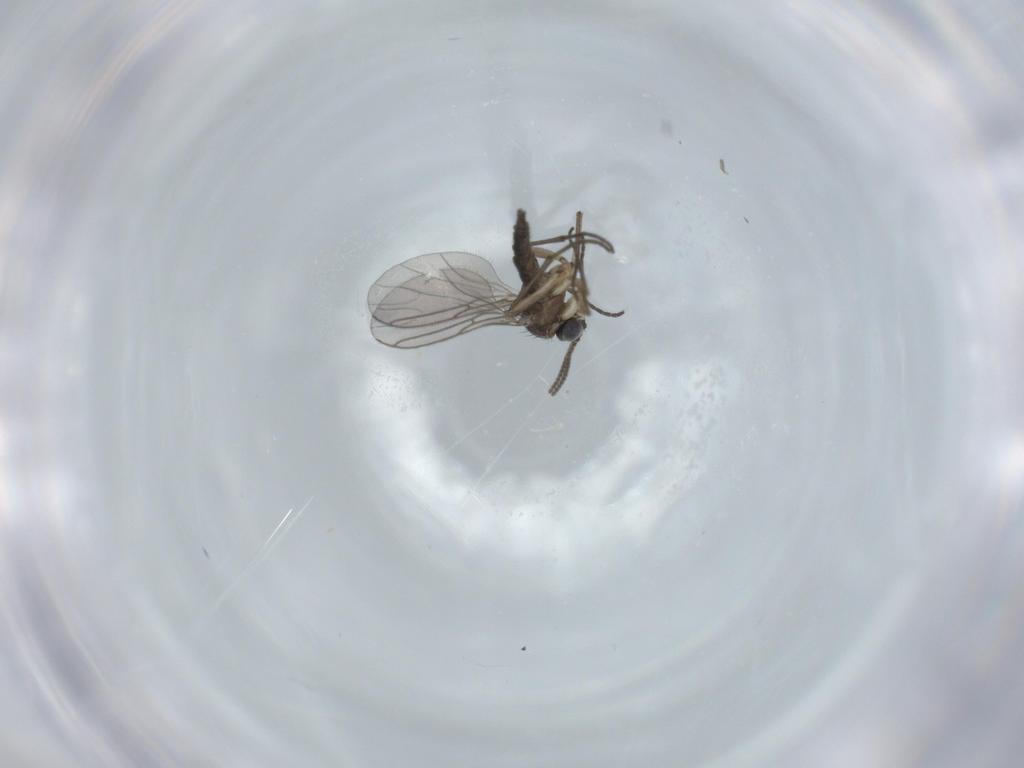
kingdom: Animalia
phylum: Arthropoda
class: Insecta
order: Diptera
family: Sciaridae
